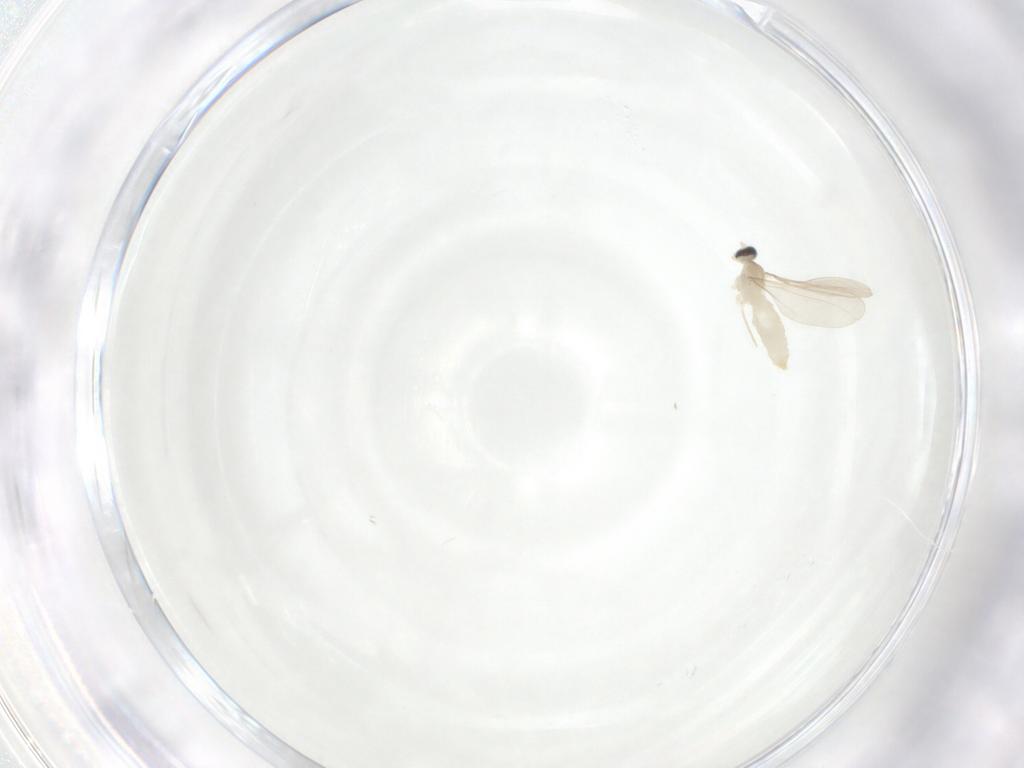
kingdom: Animalia
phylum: Arthropoda
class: Insecta
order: Diptera
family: Cecidomyiidae
